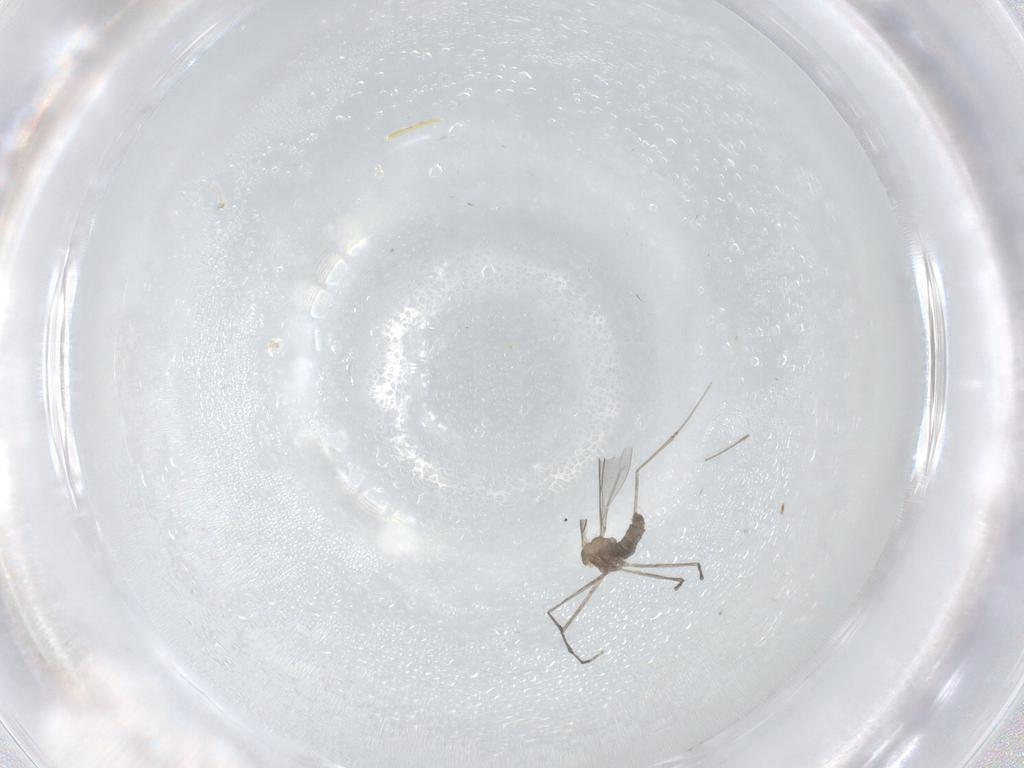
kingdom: Animalia
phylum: Arthropoda
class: Insecta
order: Diptera
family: Cecidomyiidae
